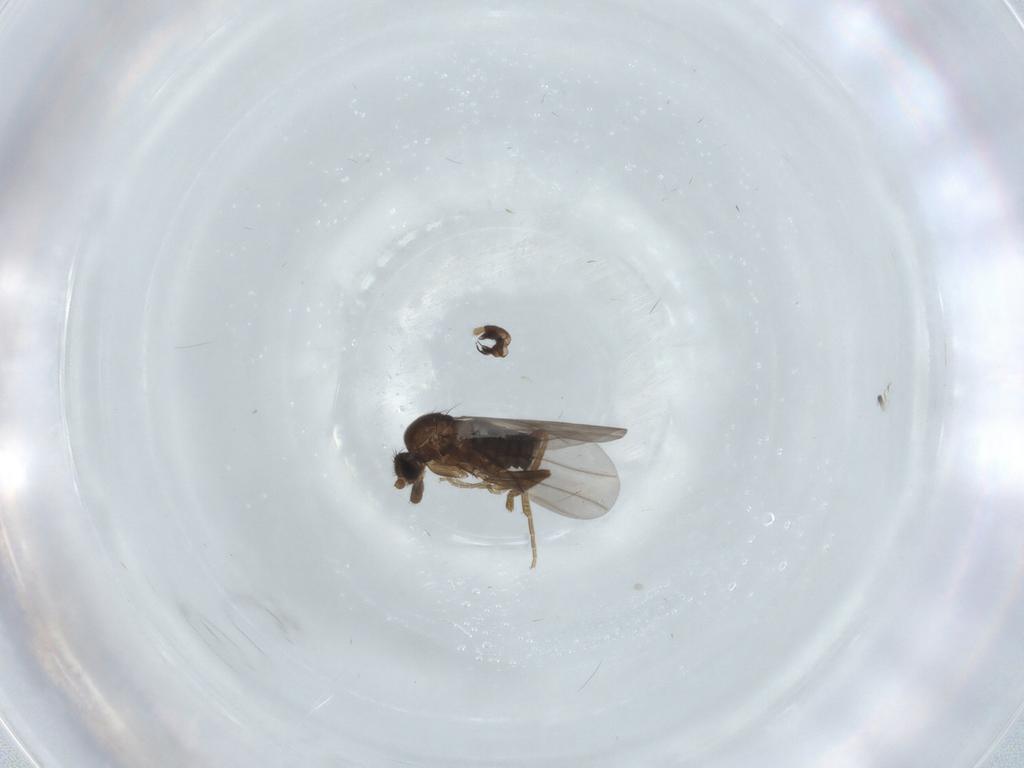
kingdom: Animalia
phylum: Arthropoda
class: Insecta
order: Diptera
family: Phoridae
